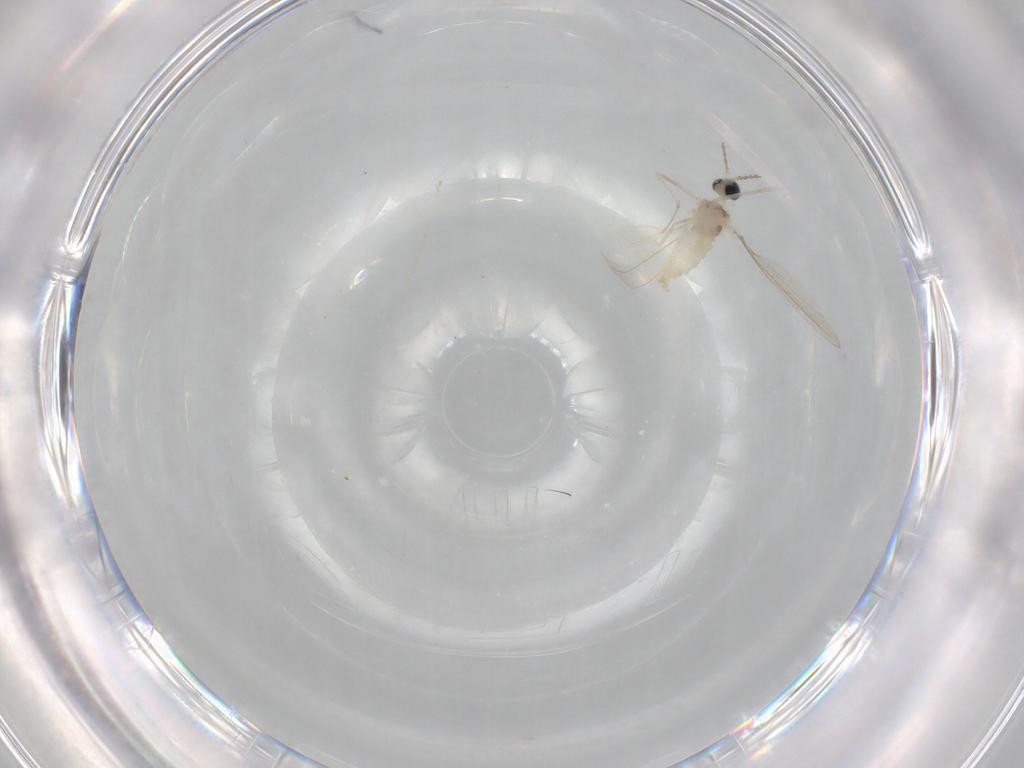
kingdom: Animalia
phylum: Arthropoda
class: Insecta
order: Diptera
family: Cecidomyiidae
